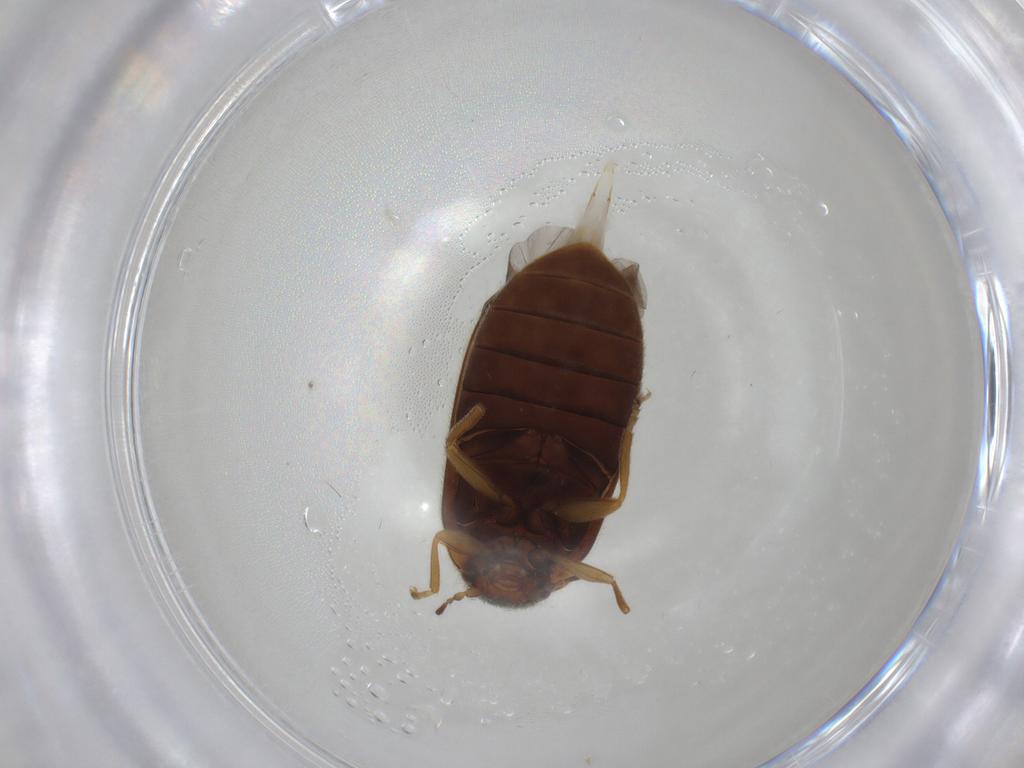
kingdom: Animalia
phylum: Arthropoda
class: Insecta
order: Coleoptera
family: Scirtidae
